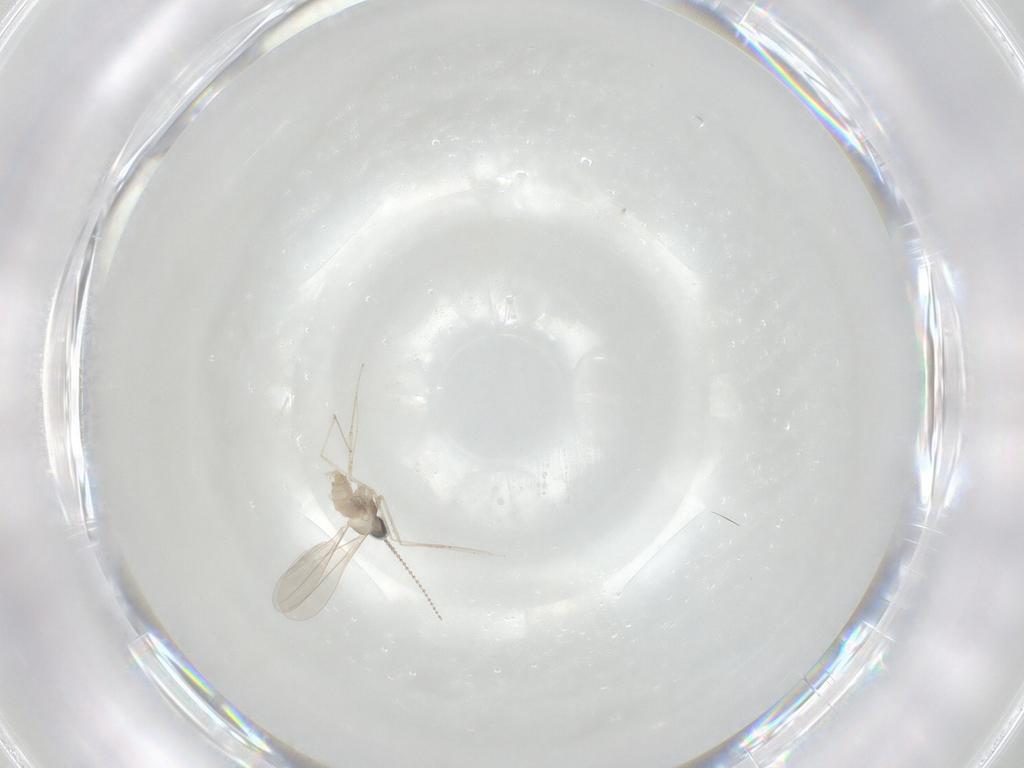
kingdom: Animalia
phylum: Arthropoda
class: Insecta
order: Diptera
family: Cecidomyiidae
